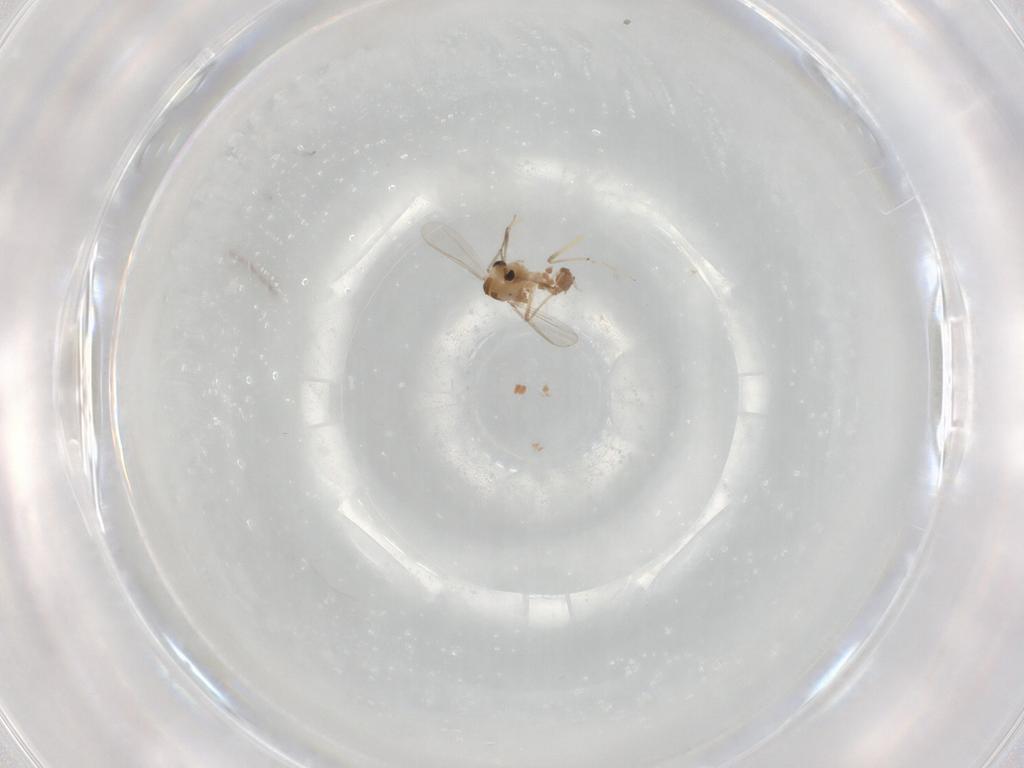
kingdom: Animalia
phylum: Arthropoda
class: Insecta
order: Diptera
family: Chironomidae
